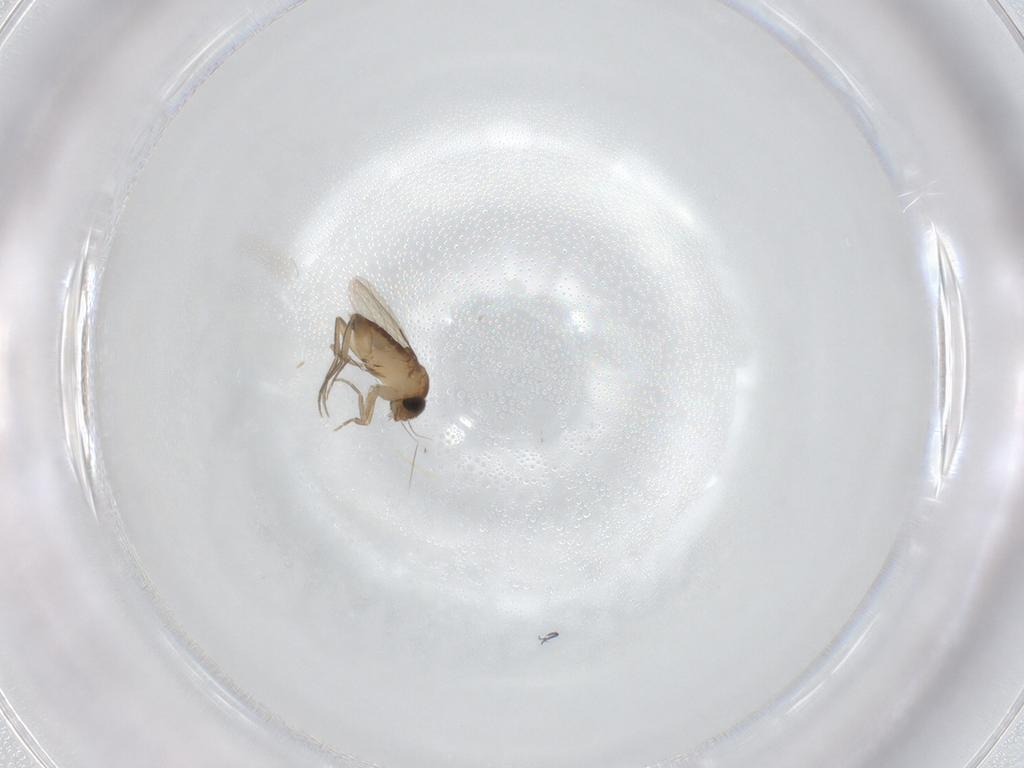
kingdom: Animalia
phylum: Arthropoda
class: Insecta
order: Diptera
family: Phoridae
